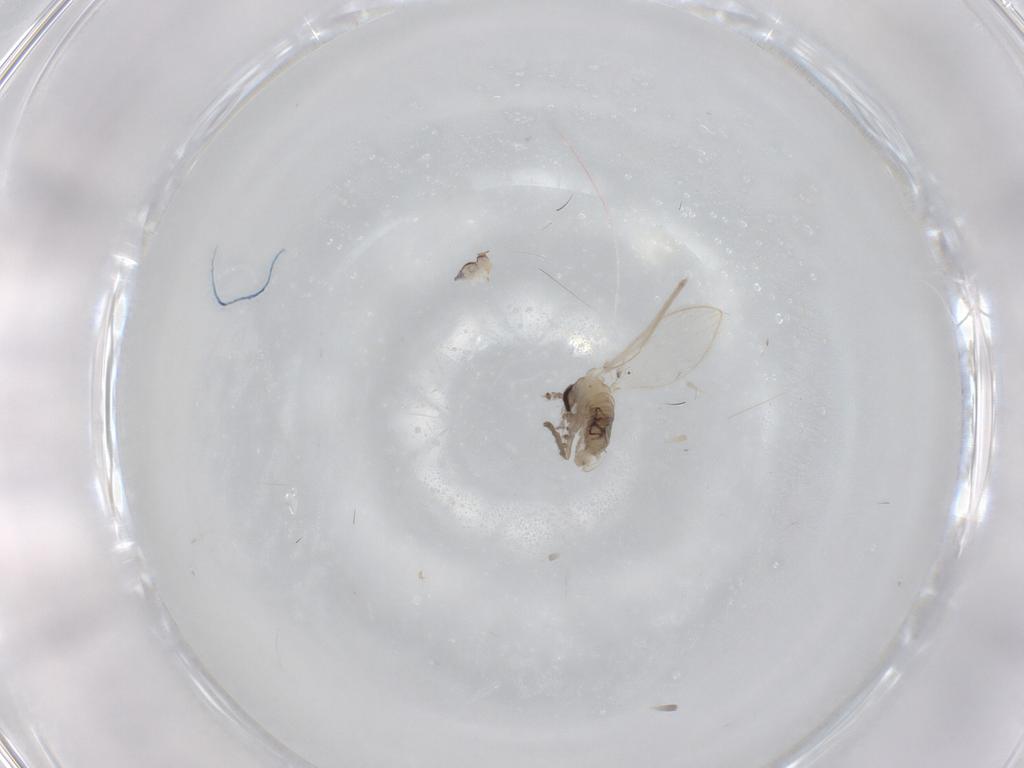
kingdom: Animalia
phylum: Arthropoda
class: Insecta
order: Diptera
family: Psychodidae
